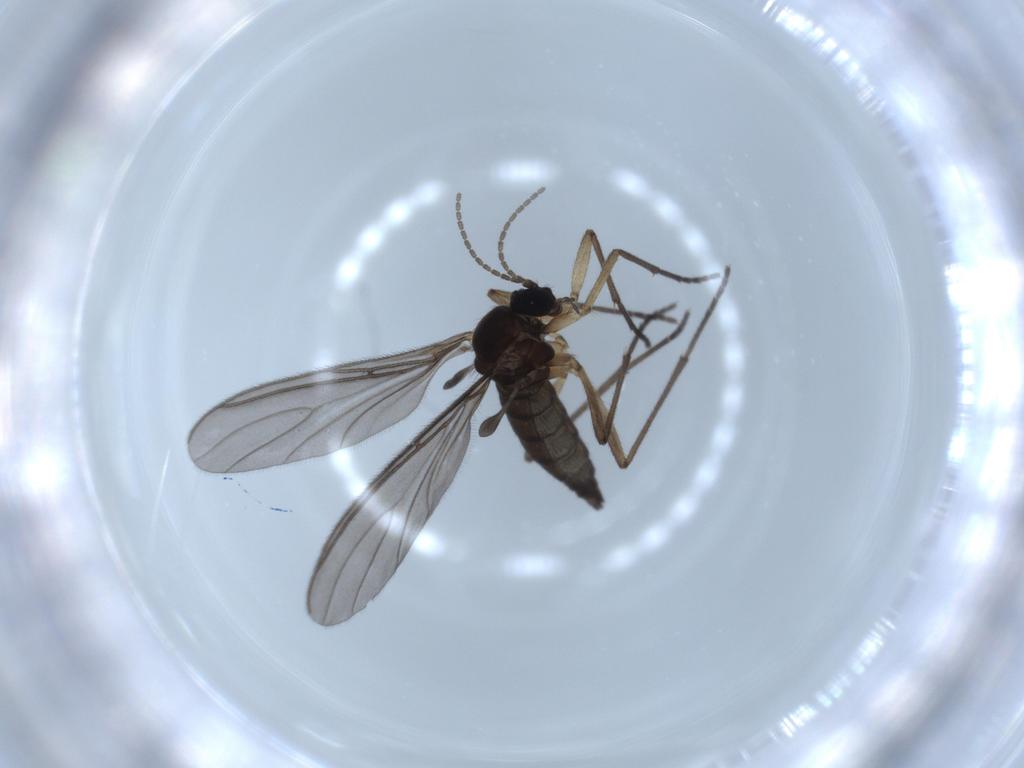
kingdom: Animalia
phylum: Arthropoda
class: Insecta
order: Diptera
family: Sciaridae
